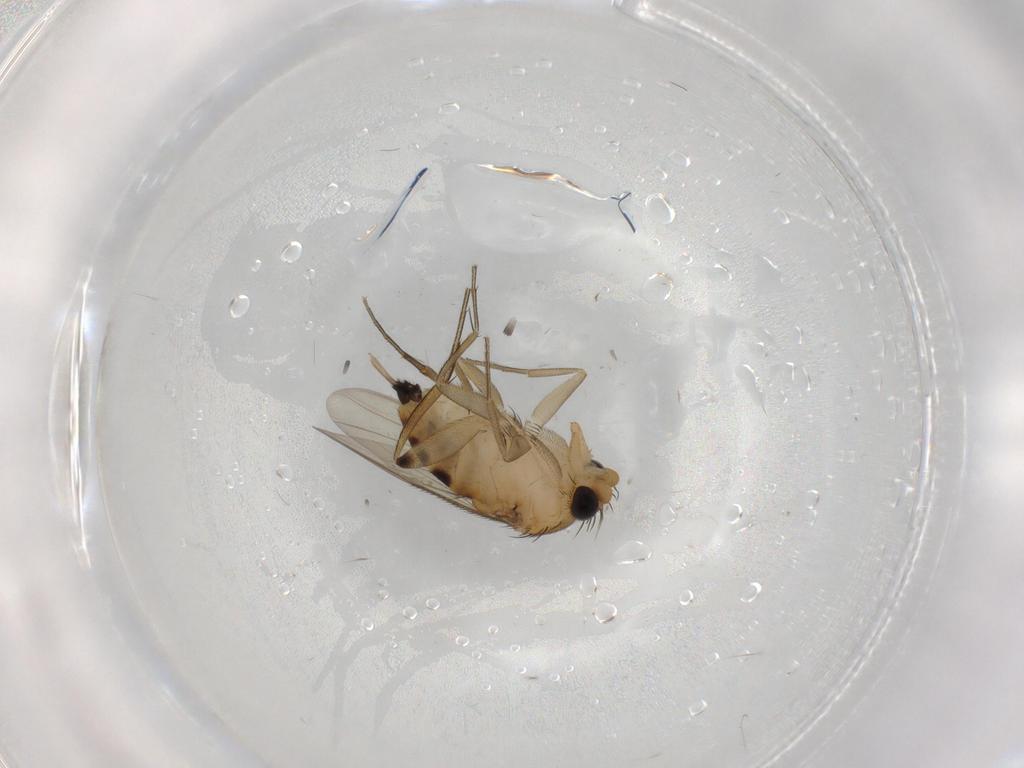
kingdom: Animalia
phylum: Arthropoda
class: Insecta
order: Diptera
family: Phoridae
